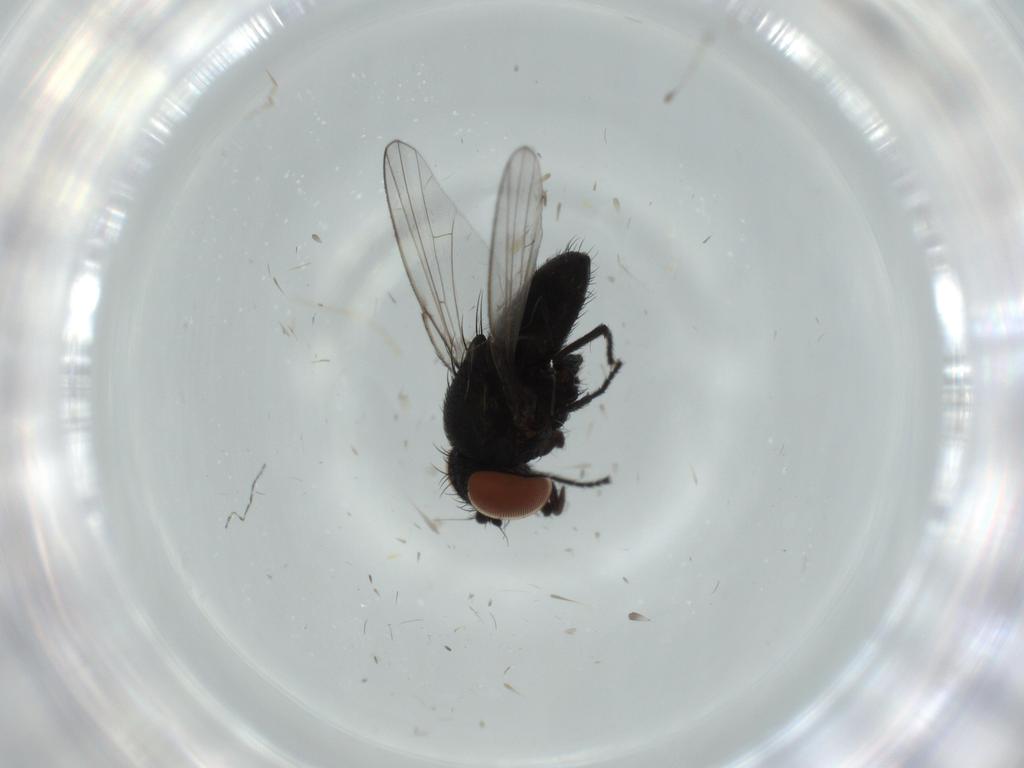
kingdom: Animalia
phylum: Arthropoda
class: Insecta
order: Diptera
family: Milichiidae
